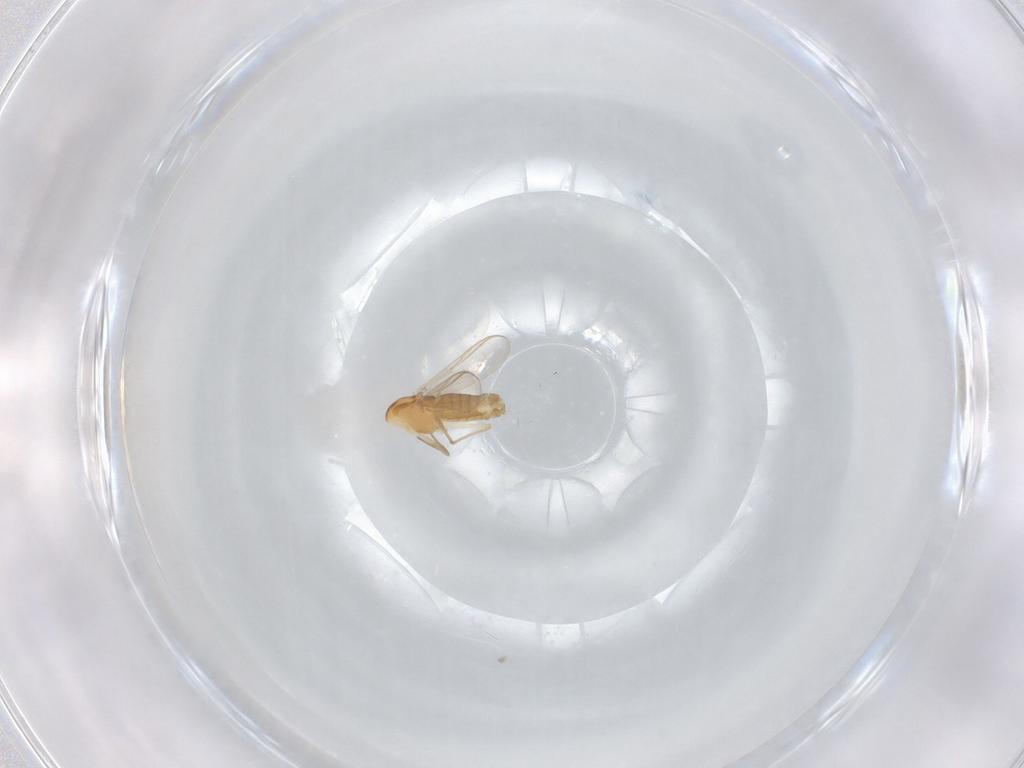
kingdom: Animalia
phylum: Arthropoda
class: Insecta
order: Diptera
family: Chironomidae
